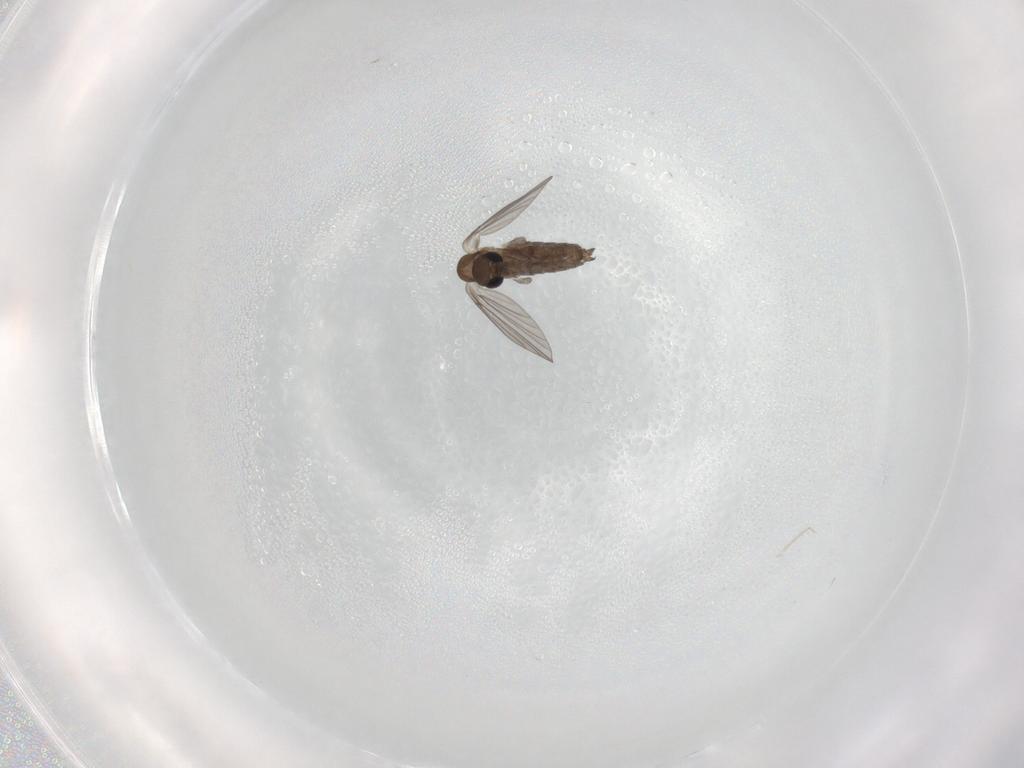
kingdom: Animalia
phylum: Arthropoda
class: Insecta
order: Diptera
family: Cecidomyiidae
